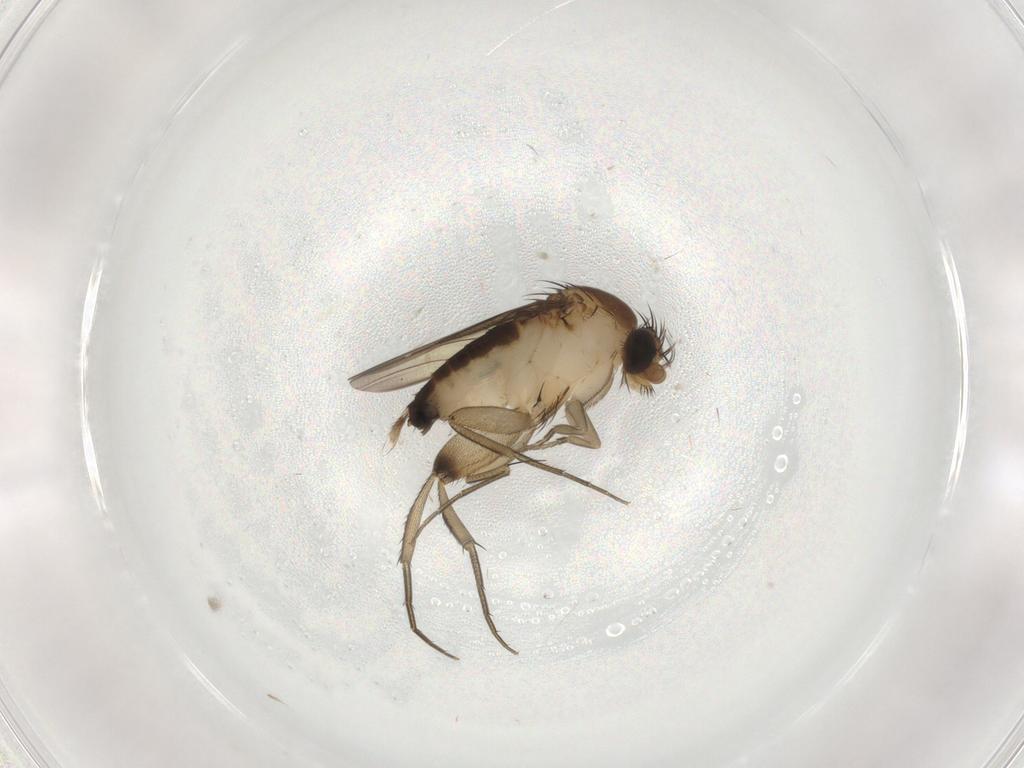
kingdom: Animalia
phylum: Arthropoda
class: Insecta
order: Diptera
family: Phoridae
